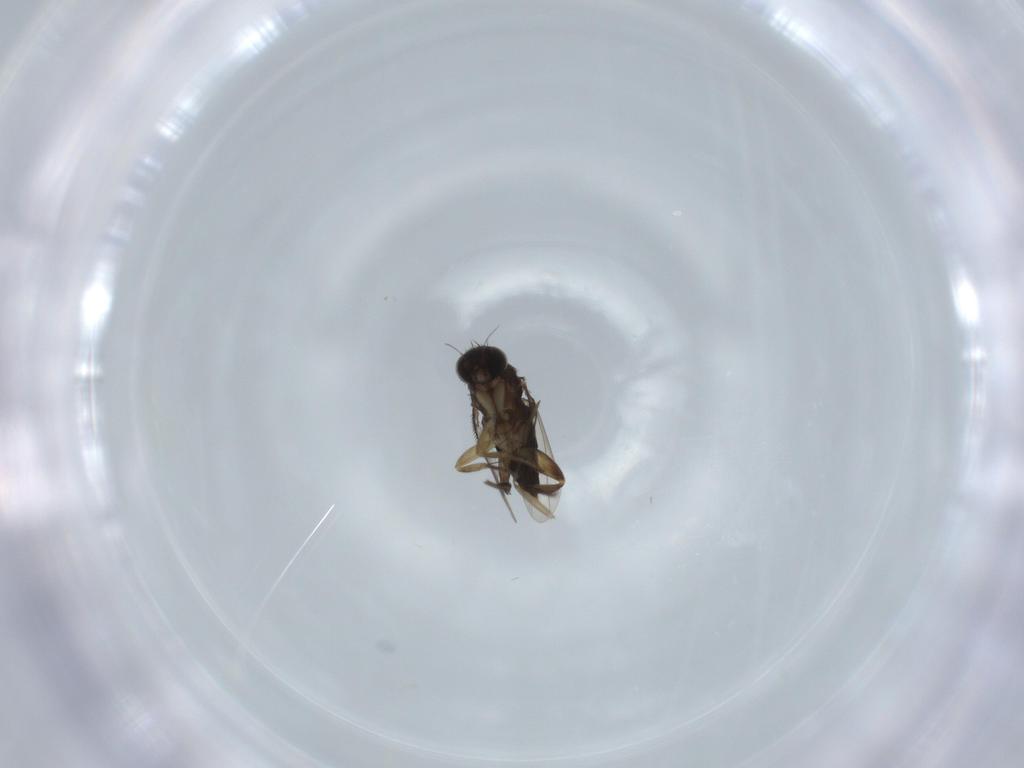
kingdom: Animalia
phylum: Arthropoda
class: Insecta
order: Diptera
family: Phoridae
